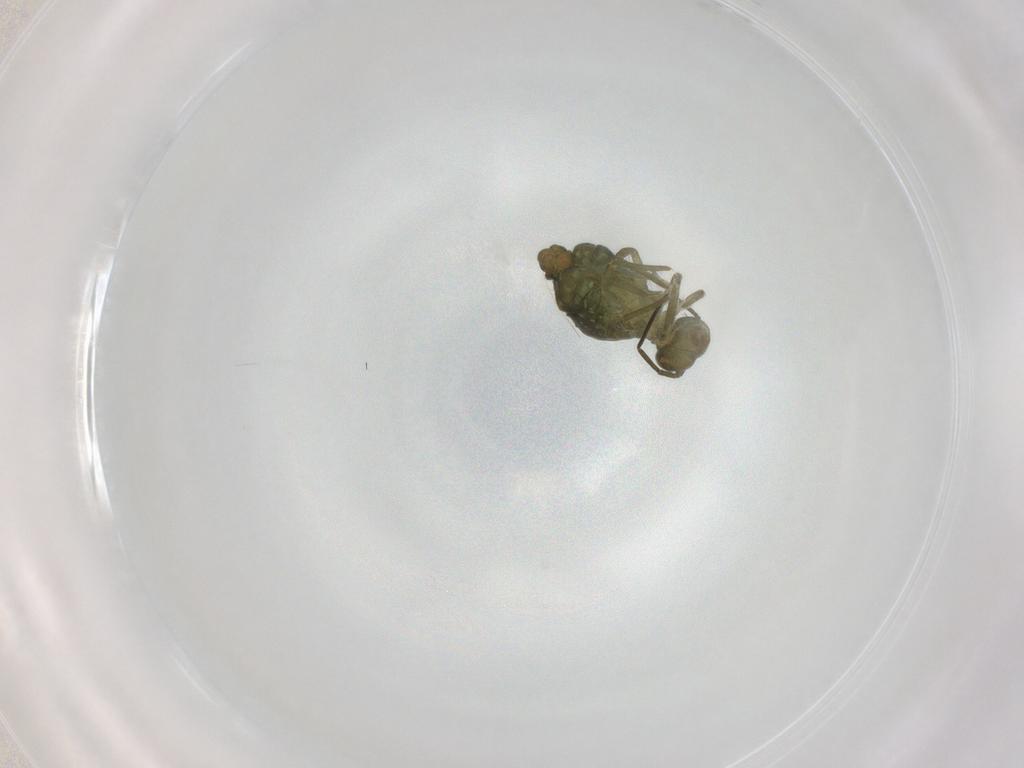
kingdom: Animalia
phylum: Arthropoda
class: Collembola
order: Symphypleona
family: Sminthuridae
